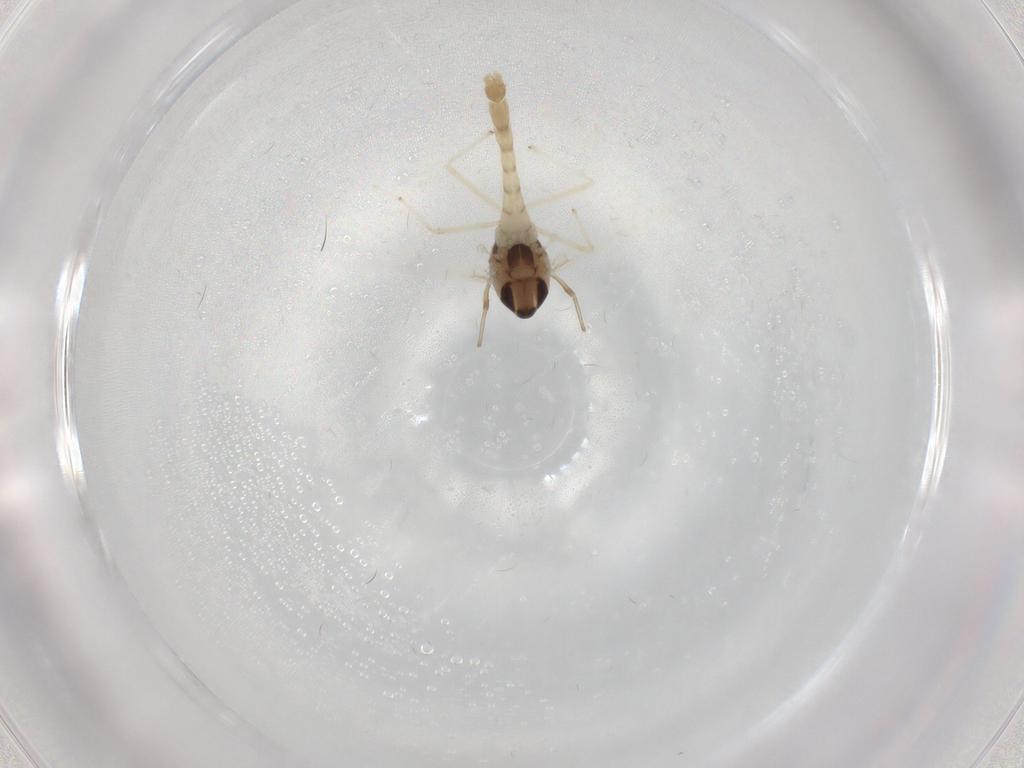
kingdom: Animalia
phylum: Arthropoda
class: Insecta
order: Diptera
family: Chironomidae
